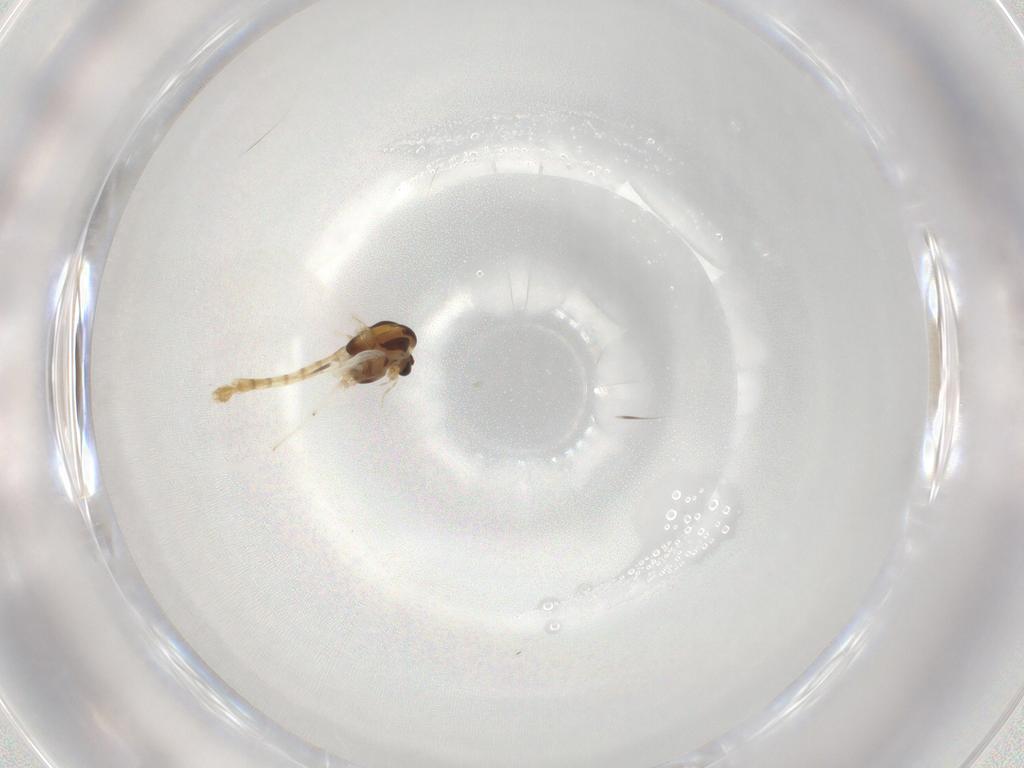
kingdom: Animalia
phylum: Arthropoda
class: Insecta
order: Diptera
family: Chironomidae
